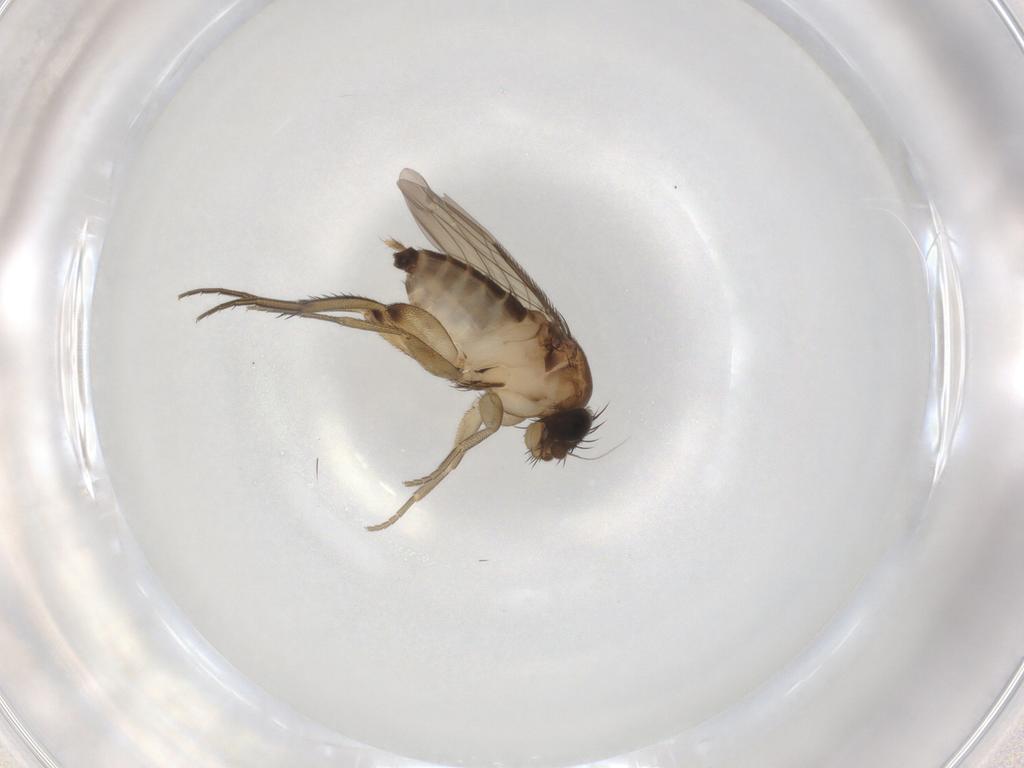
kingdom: Animalia
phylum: Arthropoda
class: Insecta
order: Diptera
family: Phoridae
